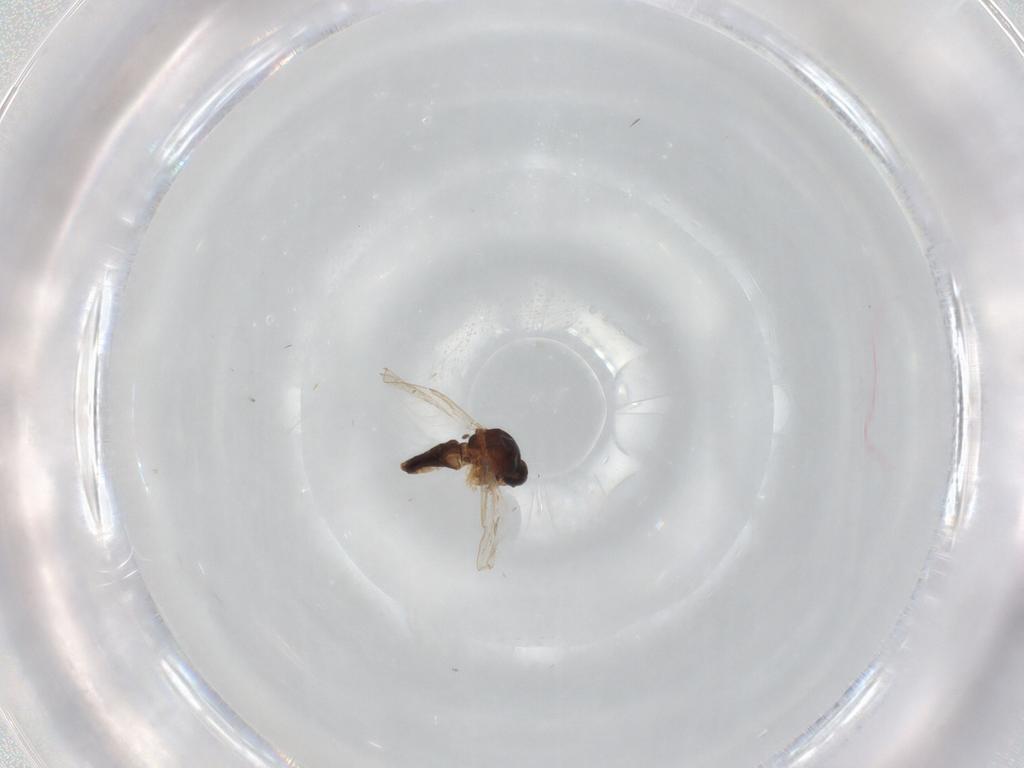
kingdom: Animalia
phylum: Arthropoda
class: Insecta
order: Diptera
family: Ceratopogonidae
